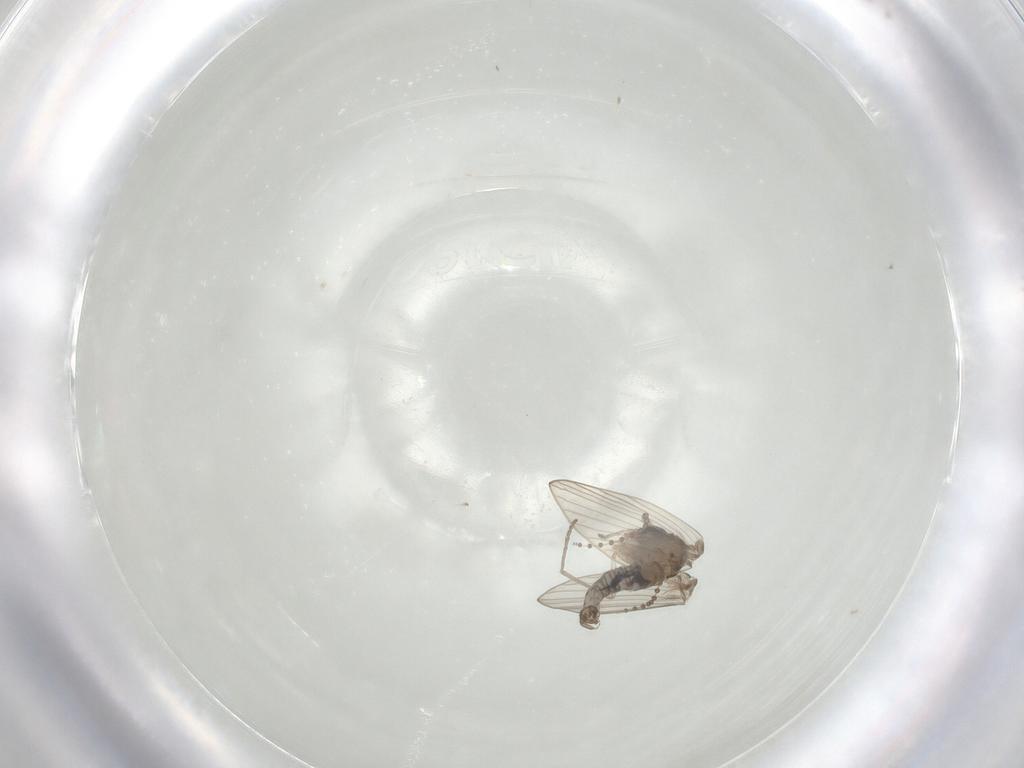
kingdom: Animalia
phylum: Arthropoda
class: Insecta
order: Diptera
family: Psychodidae
